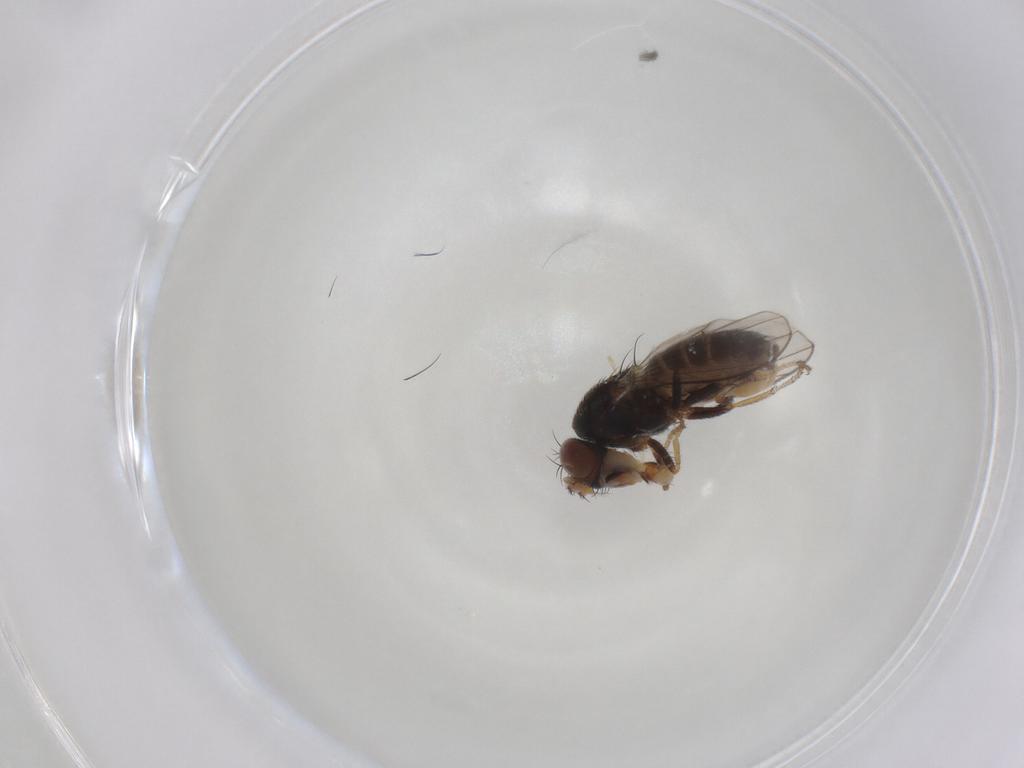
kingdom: Animalia
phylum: Arthropoda
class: Insecta
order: Diptera
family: Ephydridae
